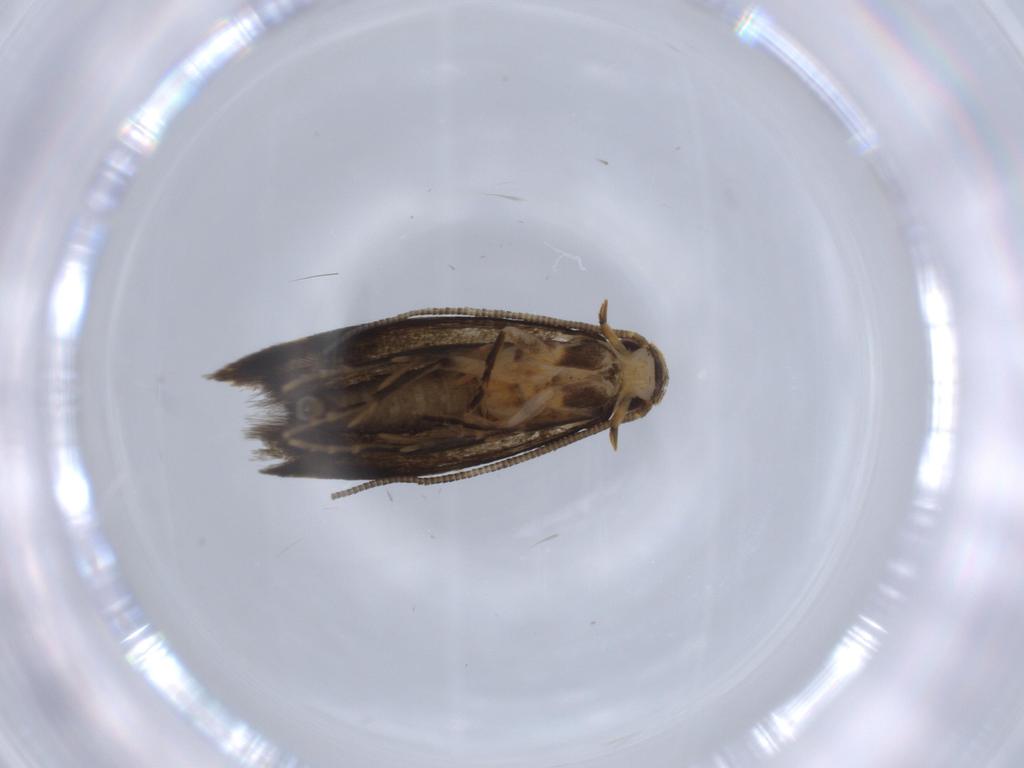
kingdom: Animalia
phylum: Arthropoda
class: Insecta
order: Lepidoptera
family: Tineidae
